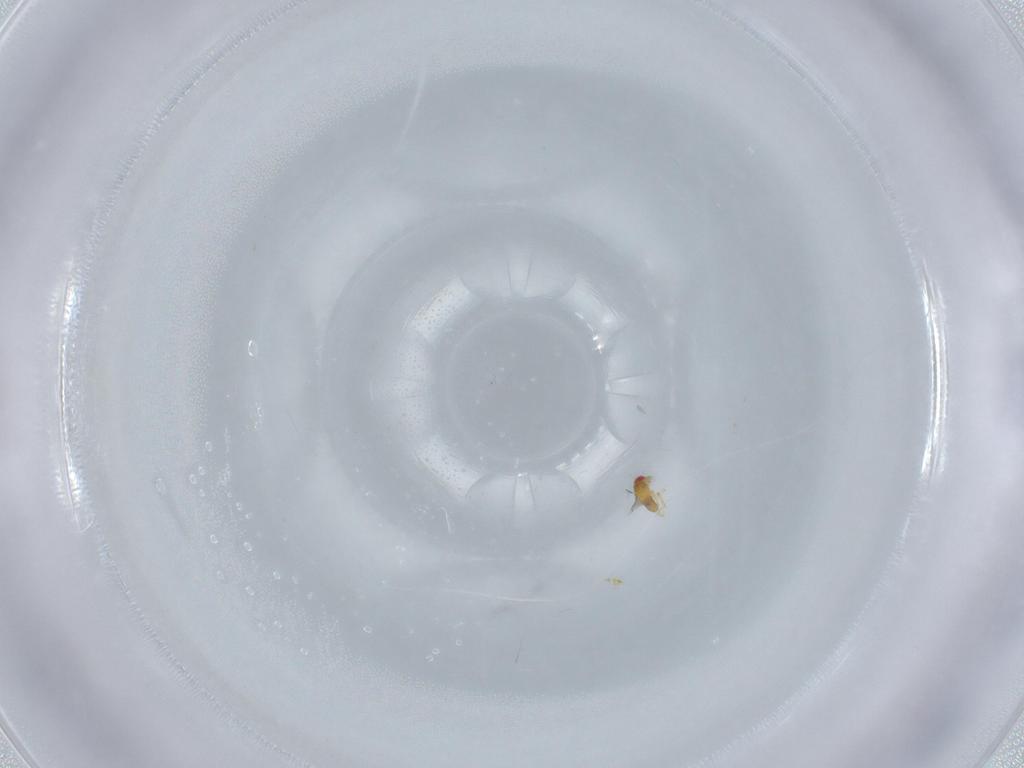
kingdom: Animalia
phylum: Arthropoda
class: Insecta
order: Hymenoptera
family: Trichogrammatidae
